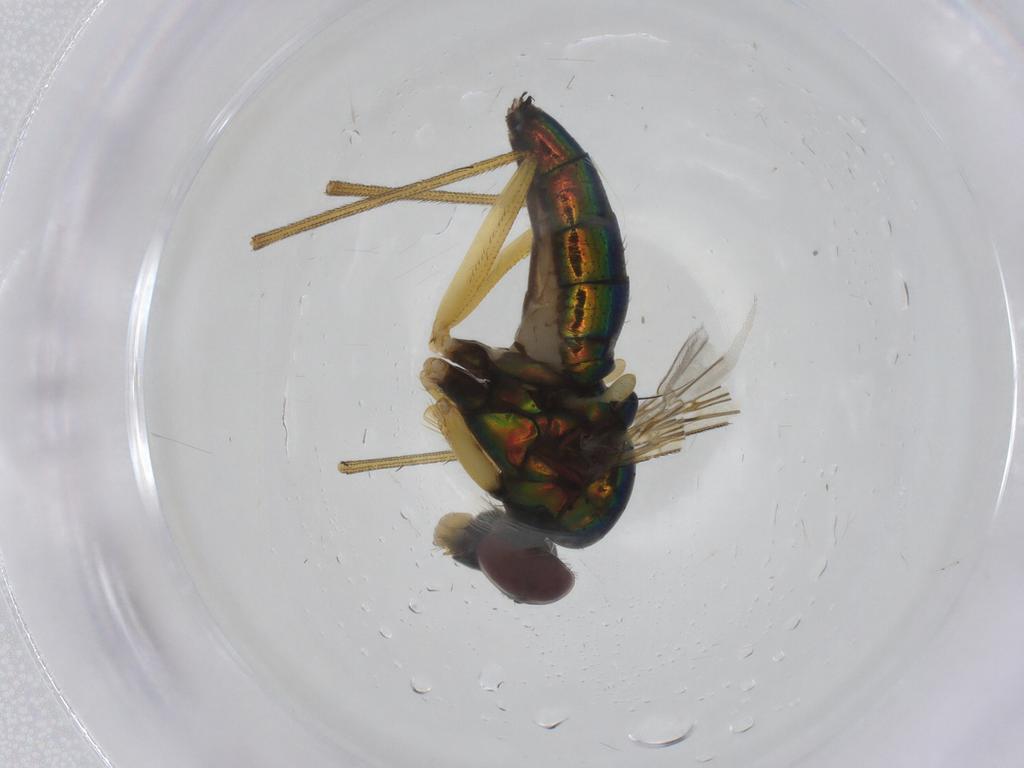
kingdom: Animalia
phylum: Arthropoda
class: Insecta
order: Diptera
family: Dolichopodidae
